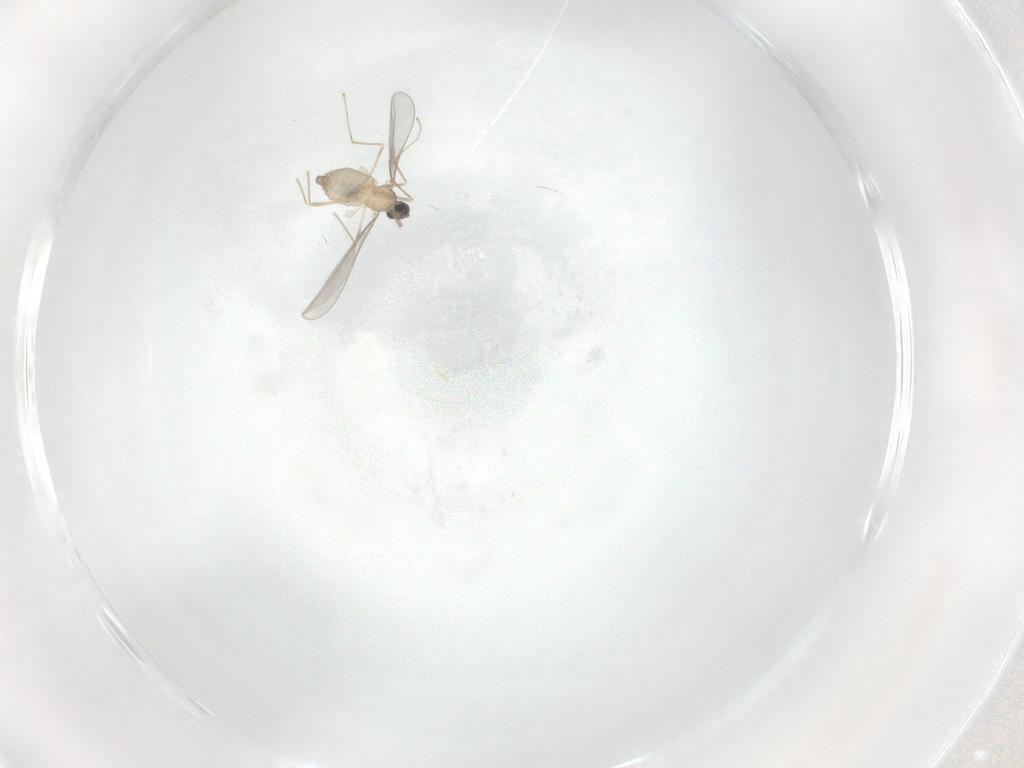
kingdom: Animalia
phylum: Arthropoda
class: Insecta
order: Diptera
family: Cecidomyiidae
